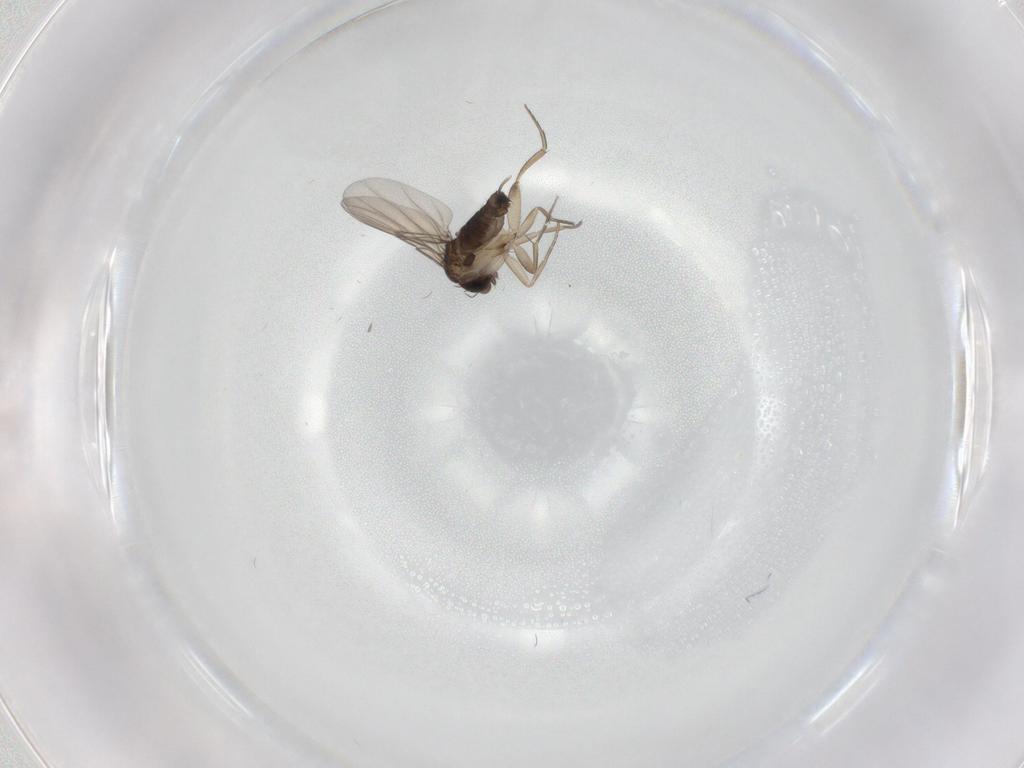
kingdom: Animalia
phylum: Arthropoda
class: Insecta
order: Diptera
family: Phoridae
